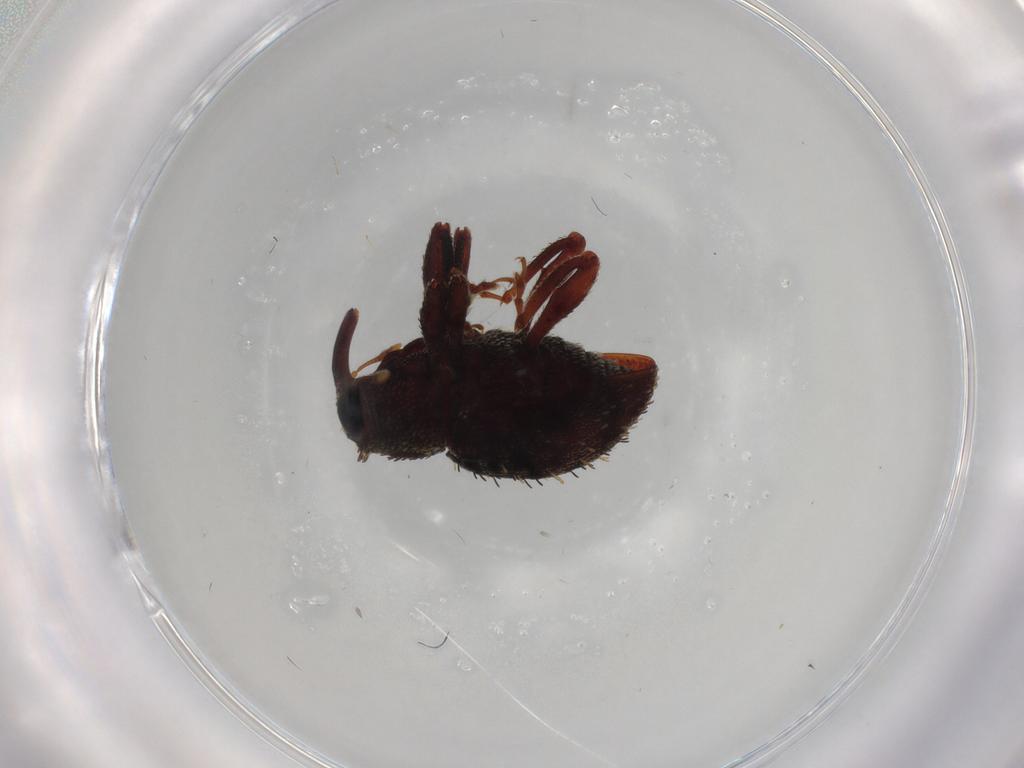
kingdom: Animalia
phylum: Arthropoda
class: Insecta
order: Coleoptera
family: Curculionidae
